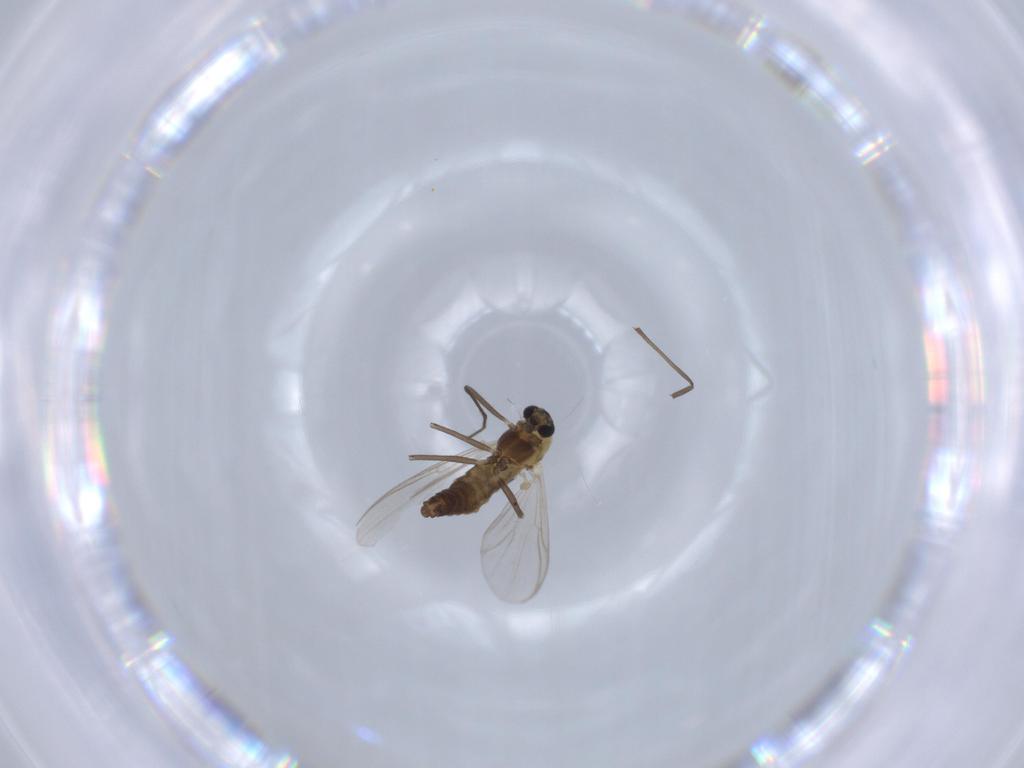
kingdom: Animalia
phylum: Arthropoda
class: Insecta
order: Diptera
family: Chironomidae
